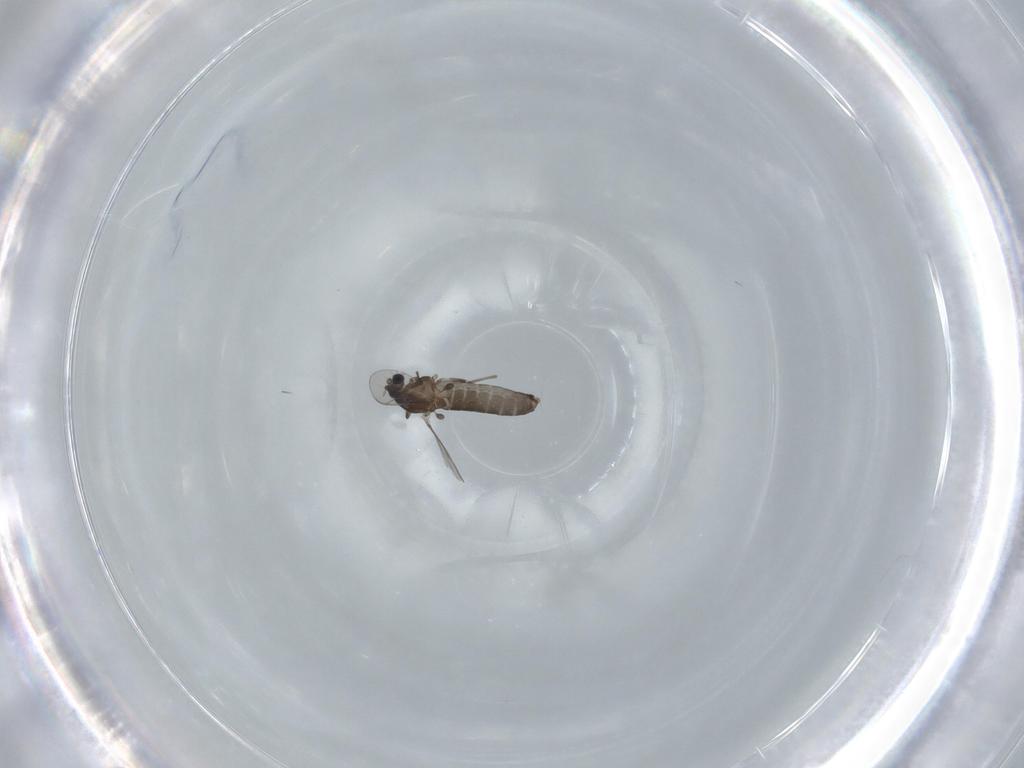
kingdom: Animalia
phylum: Arthropoda
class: Insecta
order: Diptera
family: Chironomidae
